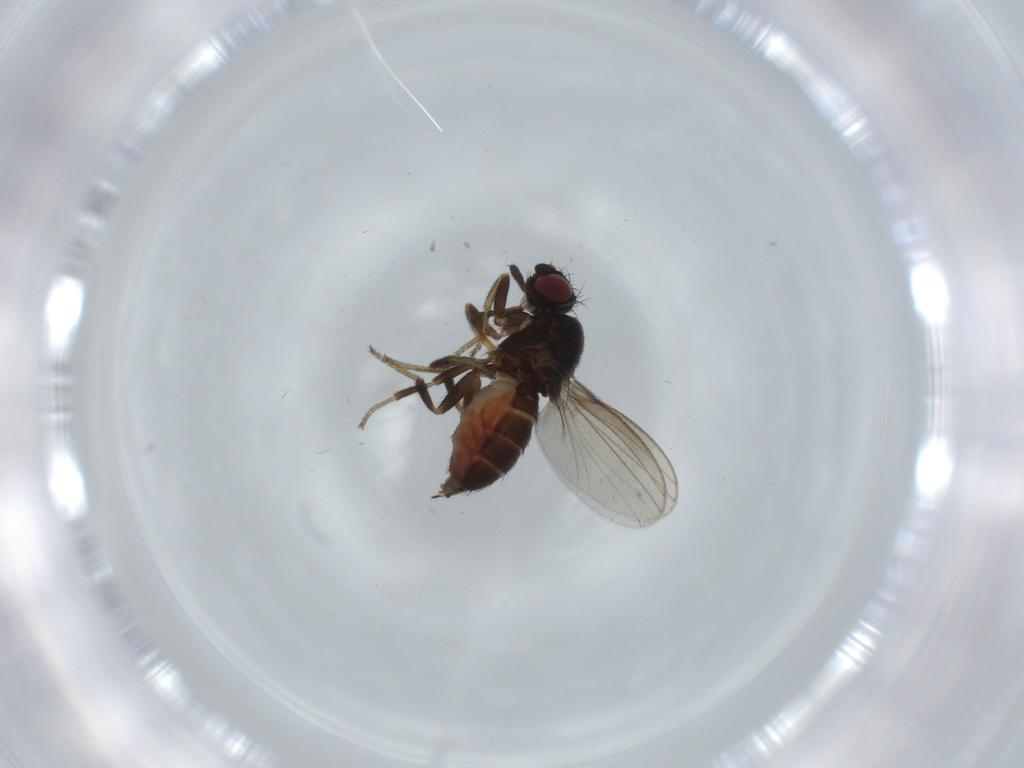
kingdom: Animalia
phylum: Arthropoda
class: Insecta
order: Diptera
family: Milichiidae
